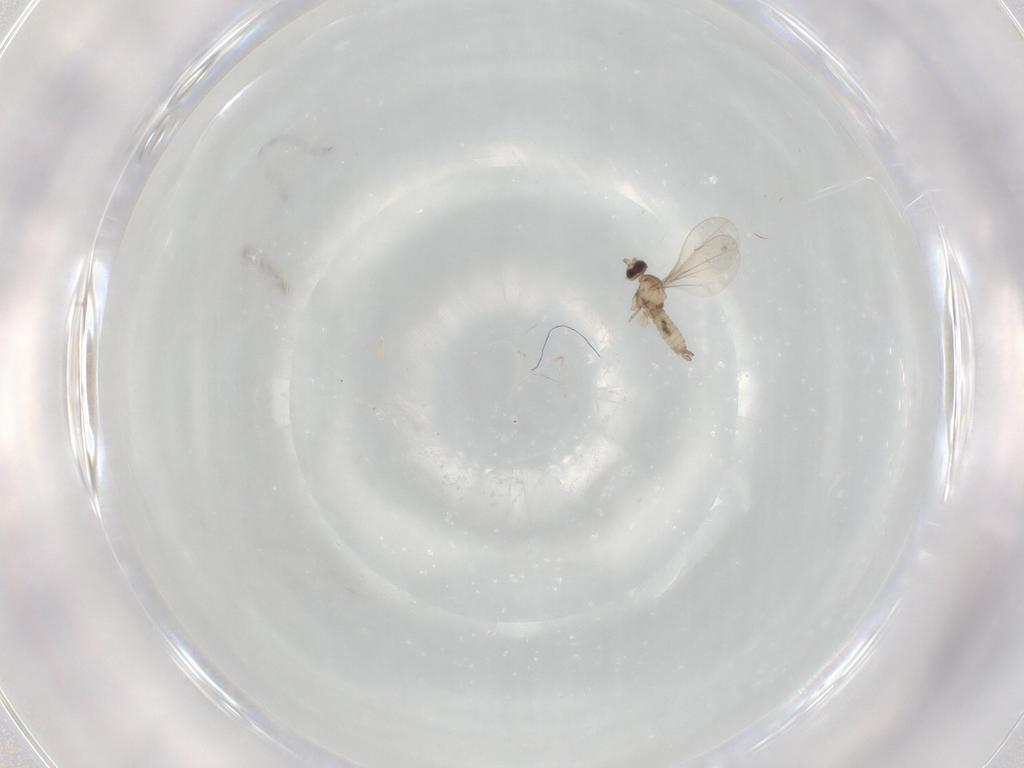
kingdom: Animalia
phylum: Arthropoda
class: Insecta
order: Diptera
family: Cecidomyiidae
